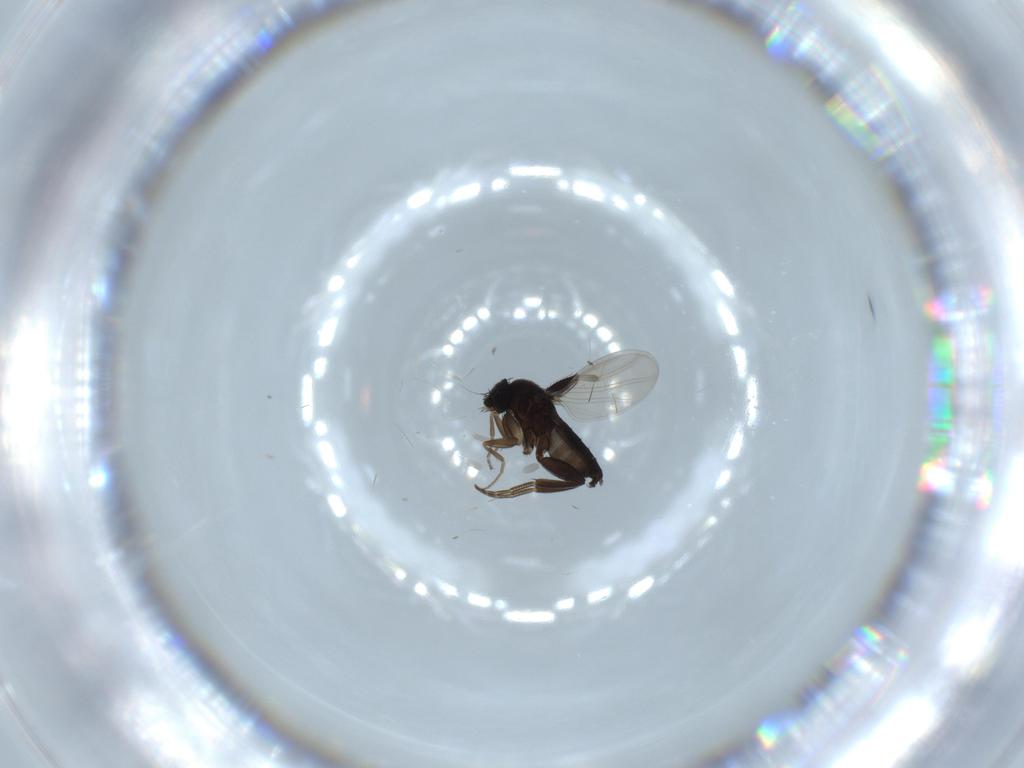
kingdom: Animalia
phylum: Arthropoda
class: Insecta
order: Diptera
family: Phoridae
